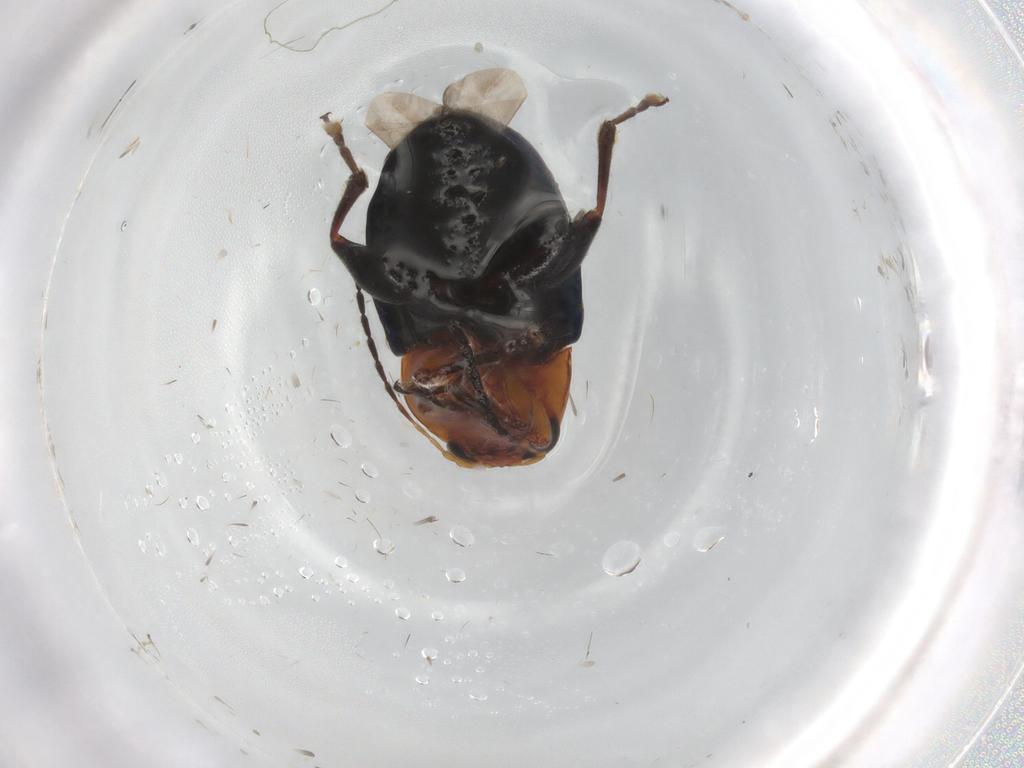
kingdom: Animalia
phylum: Arthropoda
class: Insecta
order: Coleoptera
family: Chrysomelidae
